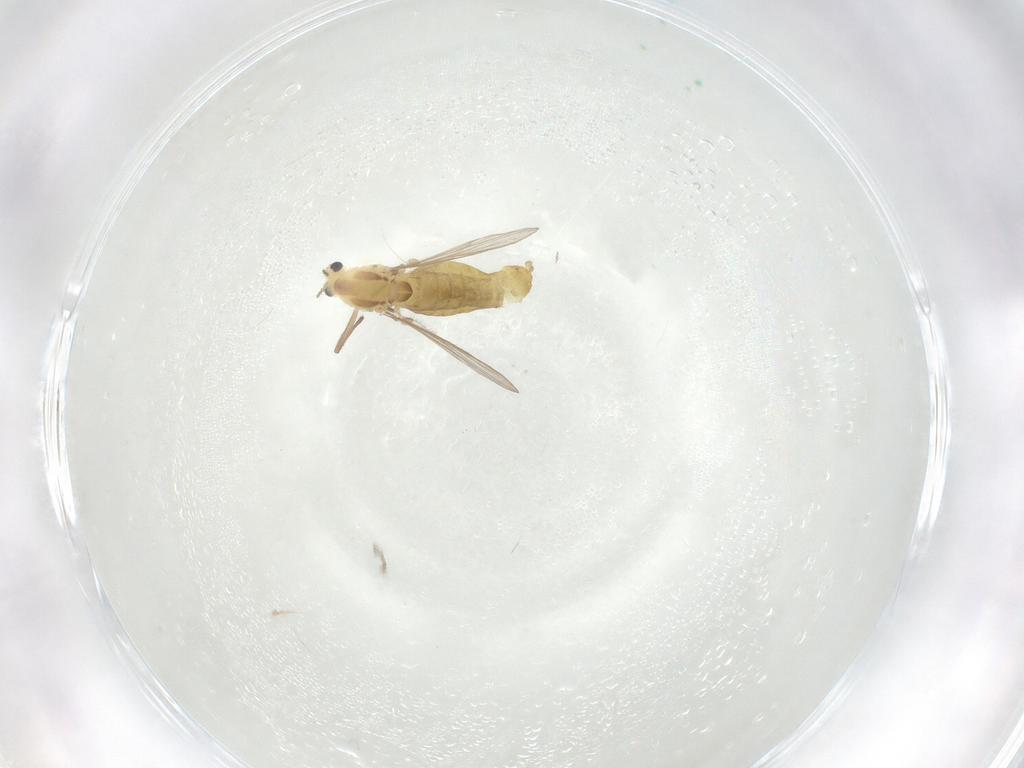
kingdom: Animalia
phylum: Arthropoda
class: Insecta
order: Diptera
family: Chironomidae
